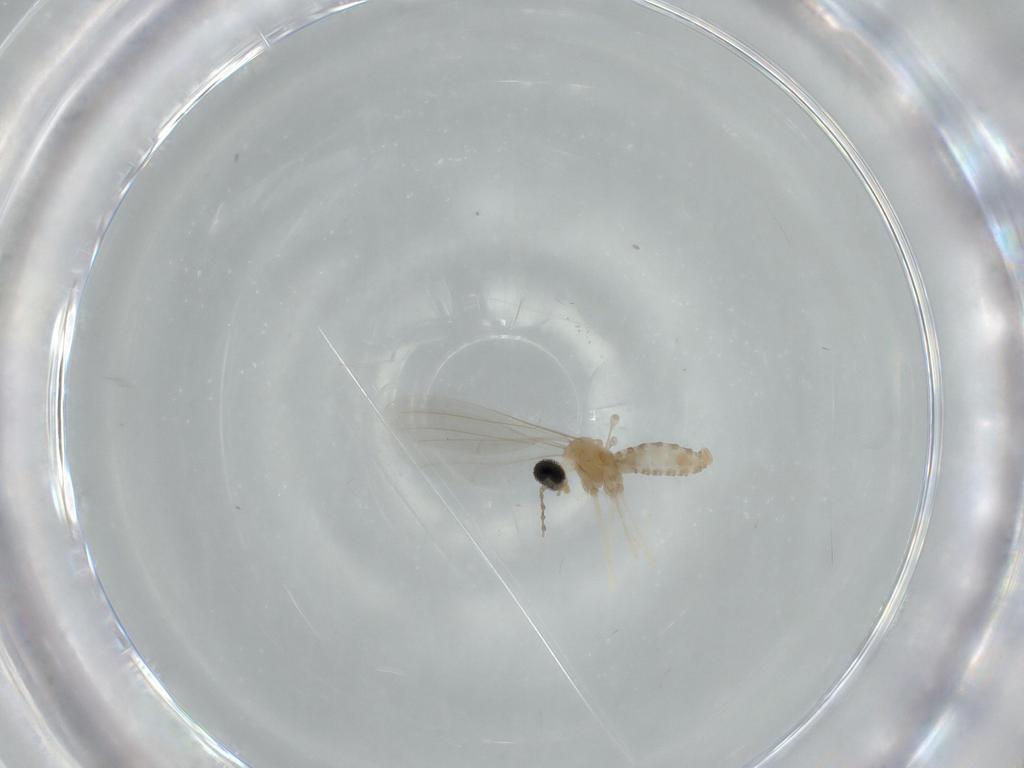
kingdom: Animalia
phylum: Arthropoda
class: Insecta
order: Diptera
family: Cecidomyiidae
